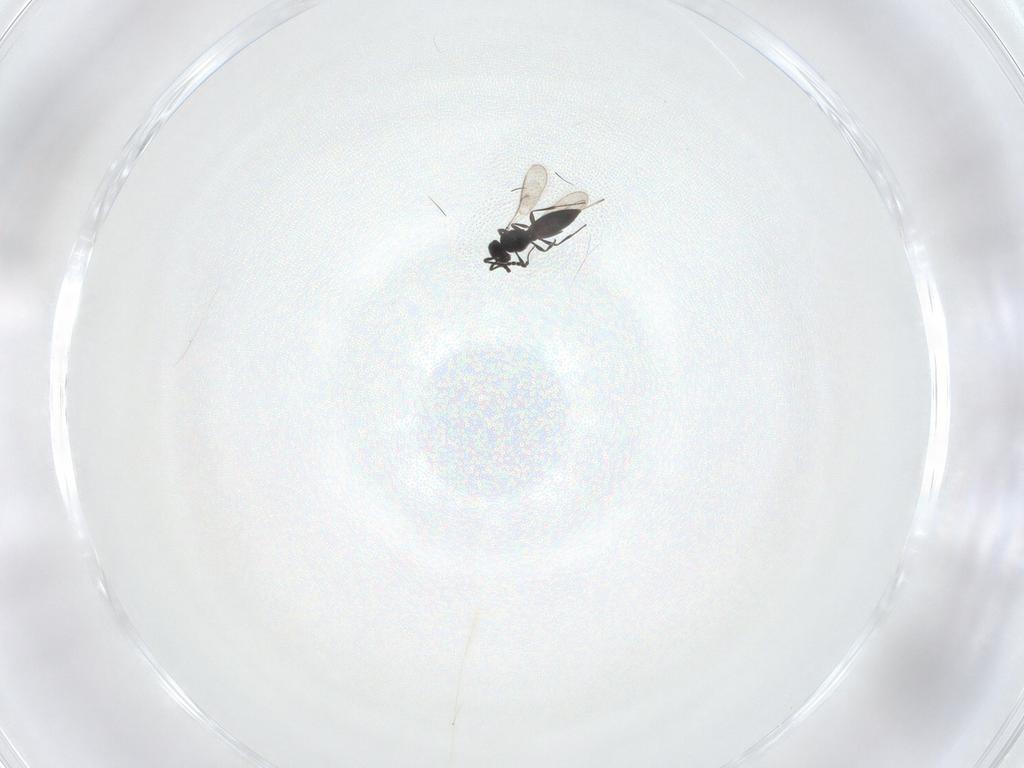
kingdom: Animalia
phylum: Arthropoda
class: Insecta
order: Hymenoptera
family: Scelionidae
